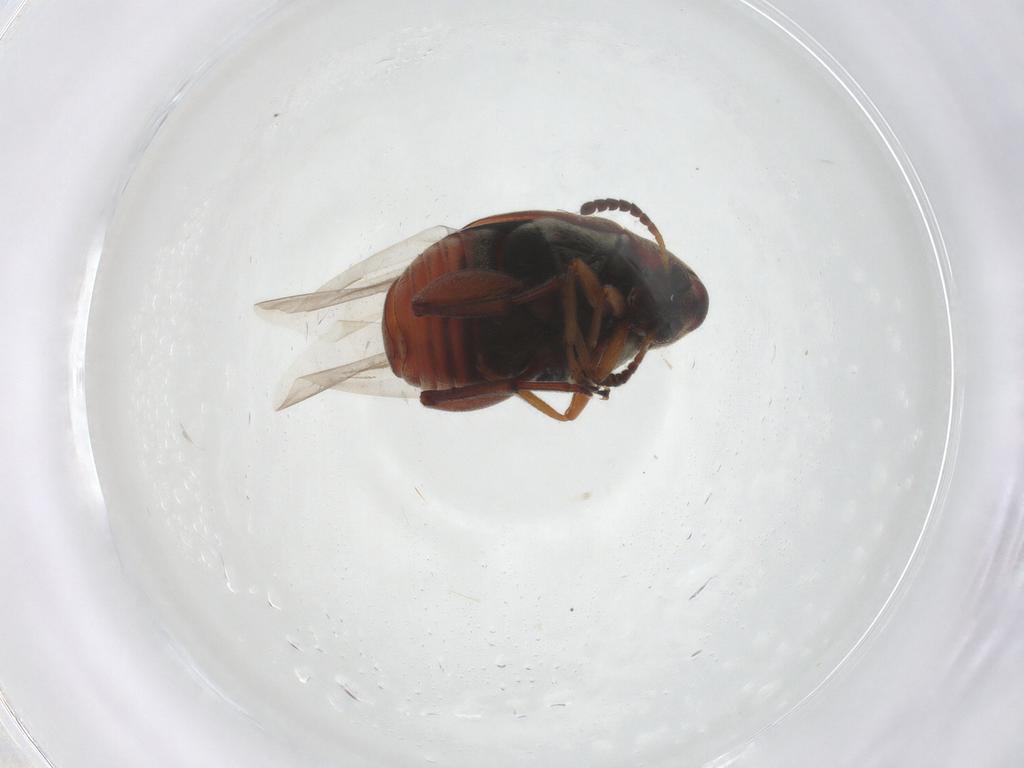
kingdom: Animalia
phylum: Arthropoda
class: Insecta
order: Coleoptera
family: Chrysomelidae
